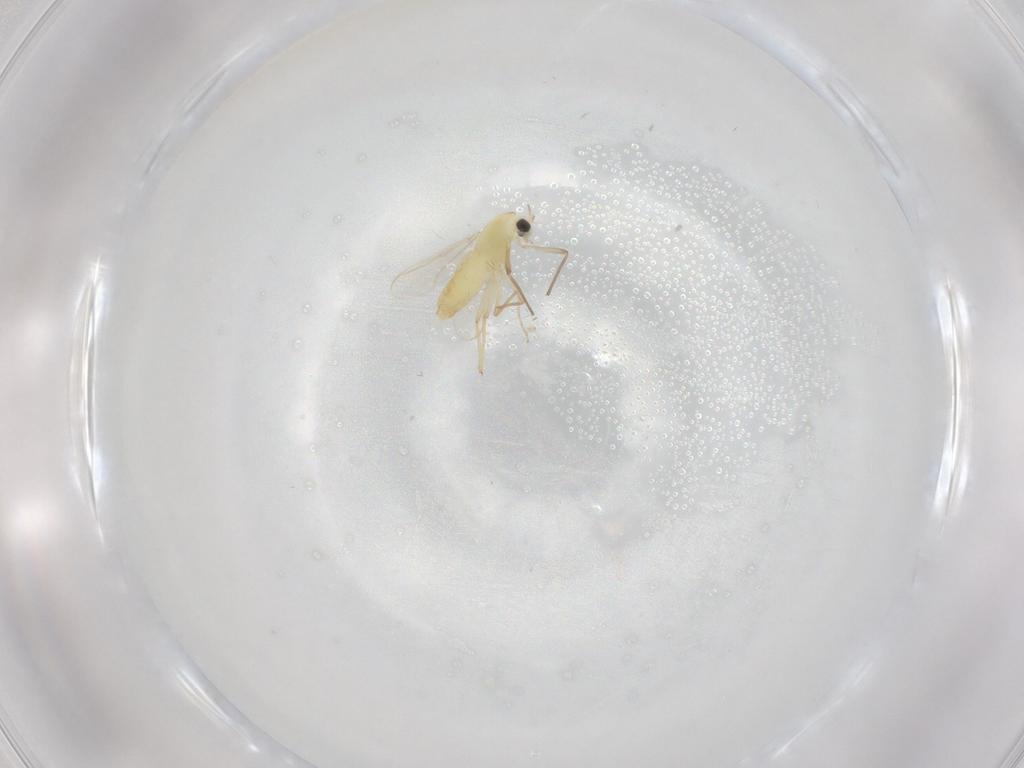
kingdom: Animalia
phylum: Arthropoda
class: Insecta
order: Diptera
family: Chironomidae
